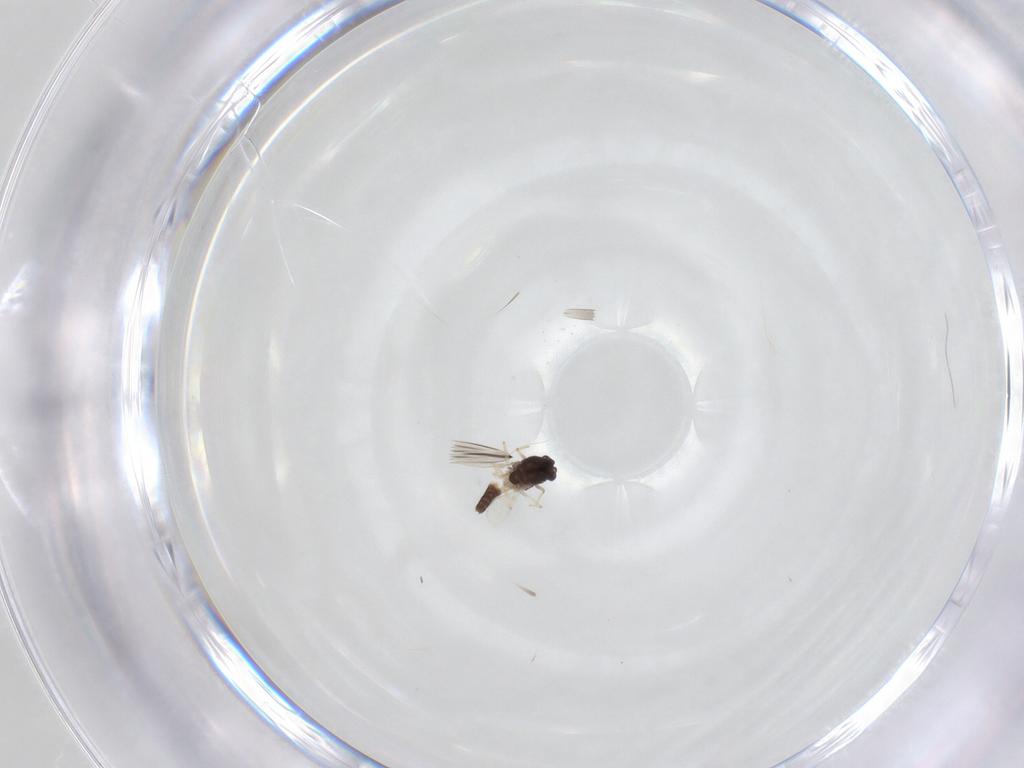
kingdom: Animalia
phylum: Arthropoda
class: Insecta
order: Diptera
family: Chironomidae
